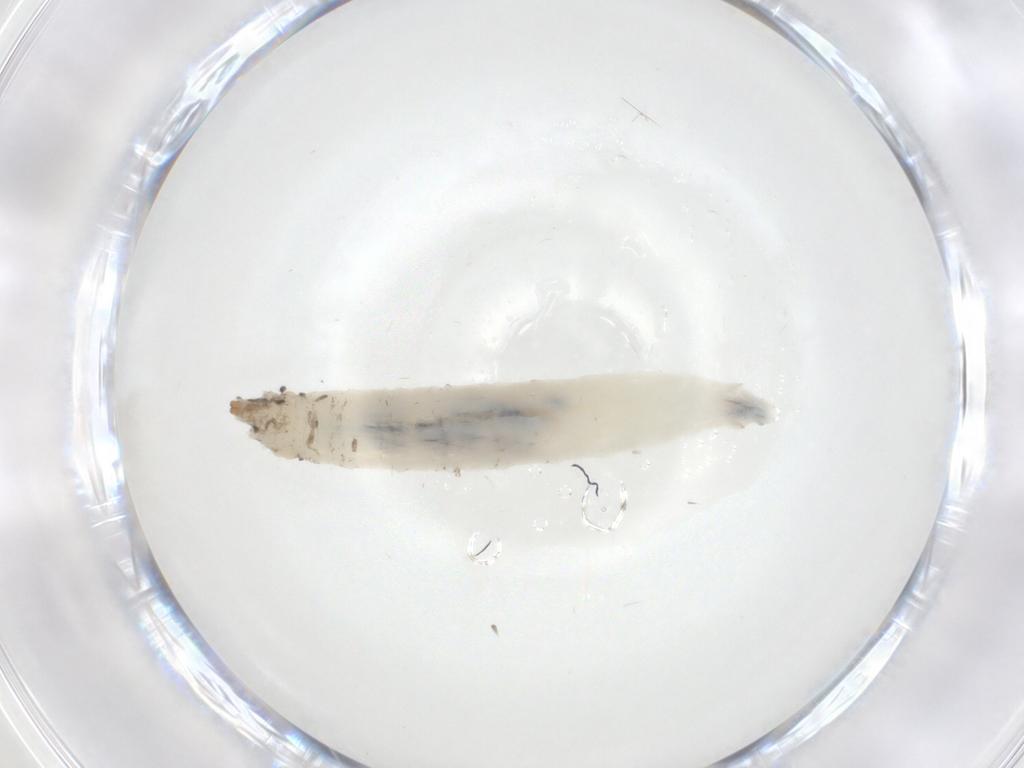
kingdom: Animalia
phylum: Arthropoda
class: Insecta
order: Diptera
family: Drosophilidae
